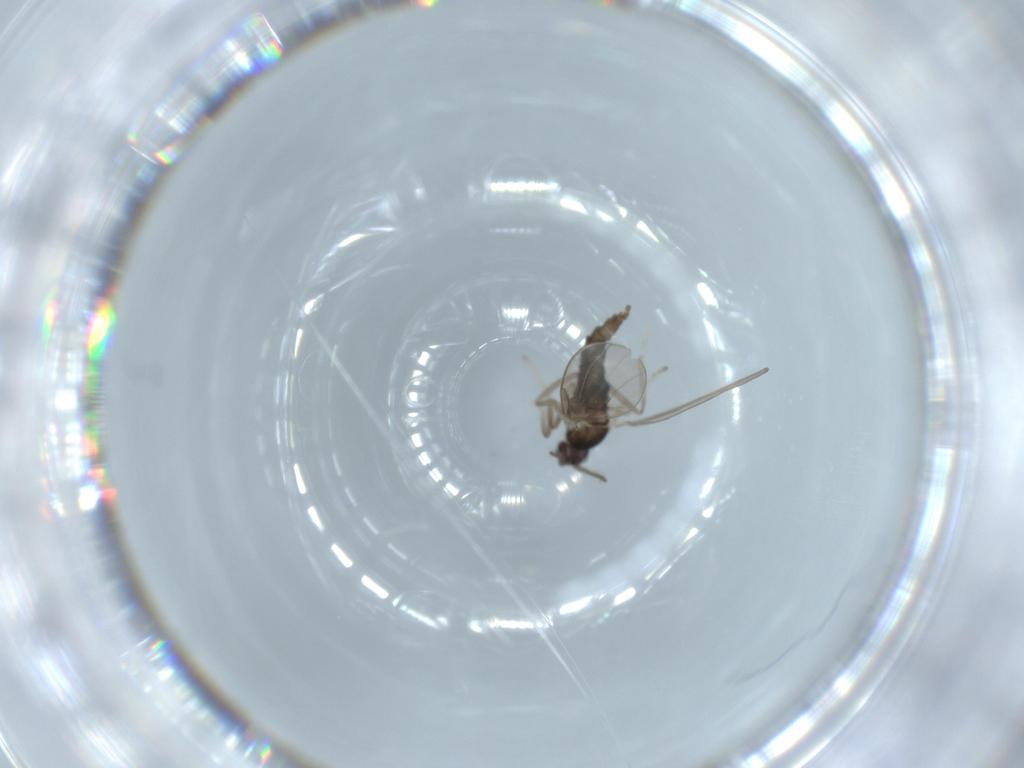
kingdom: Animalia
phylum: Arthropoda
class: Insecta
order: Diptera
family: Cecidomyiidae
